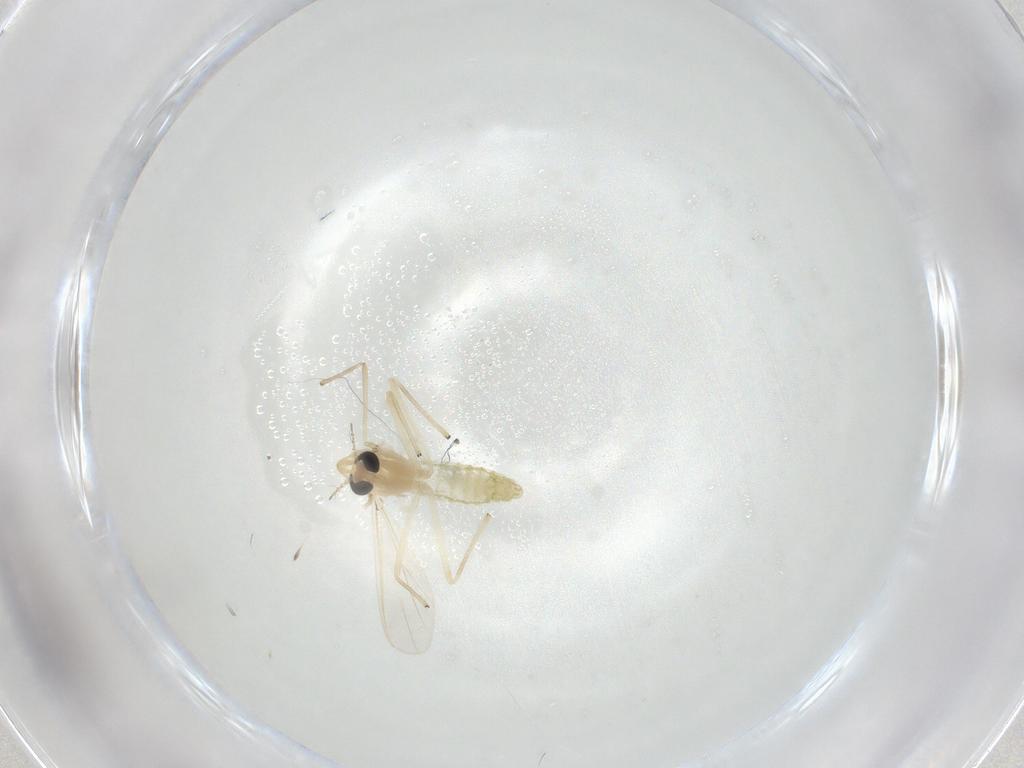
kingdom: Animalia
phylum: Arthropoda
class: Insecta
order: Diptera
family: Chironomidae
